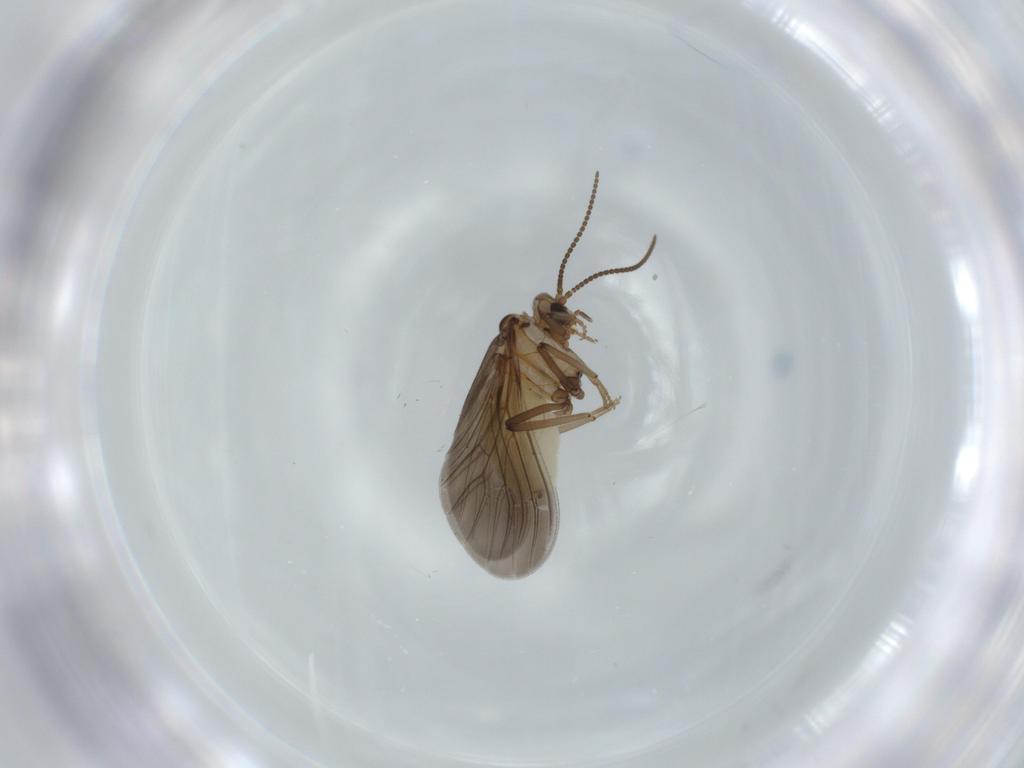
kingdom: Animalia
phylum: Arthropoda
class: Insecta
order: Neuroptera
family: Coniopterygidae
